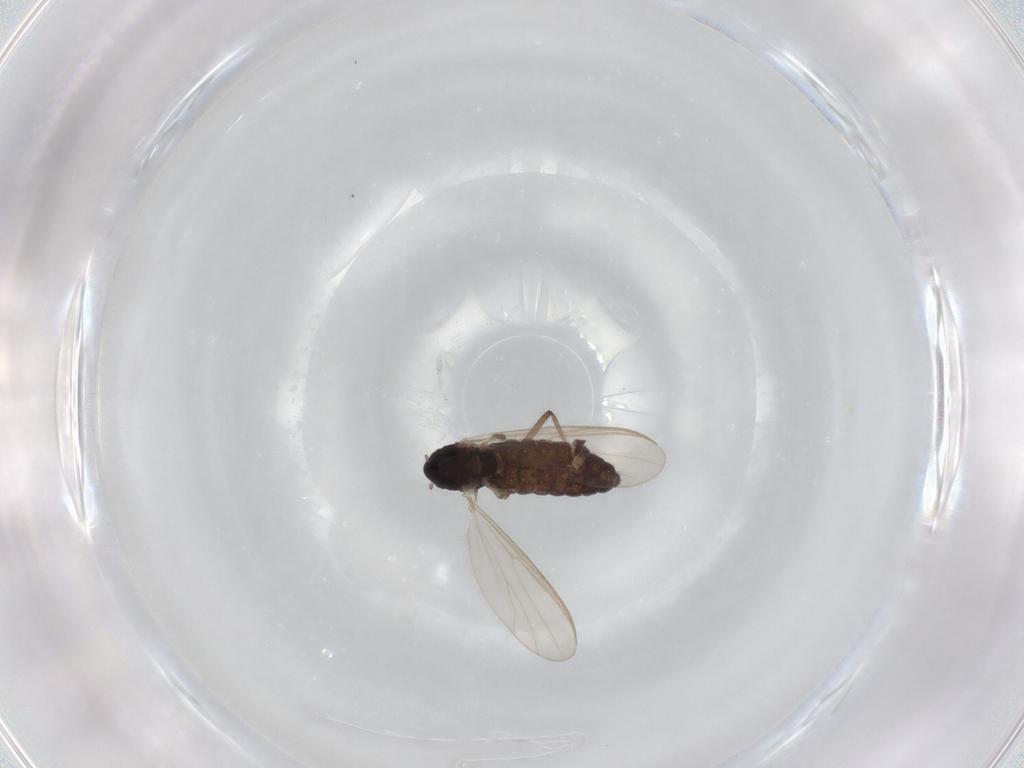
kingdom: Animalia
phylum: Arthropoda
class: Insecta
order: Diptera
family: Chironomidae
